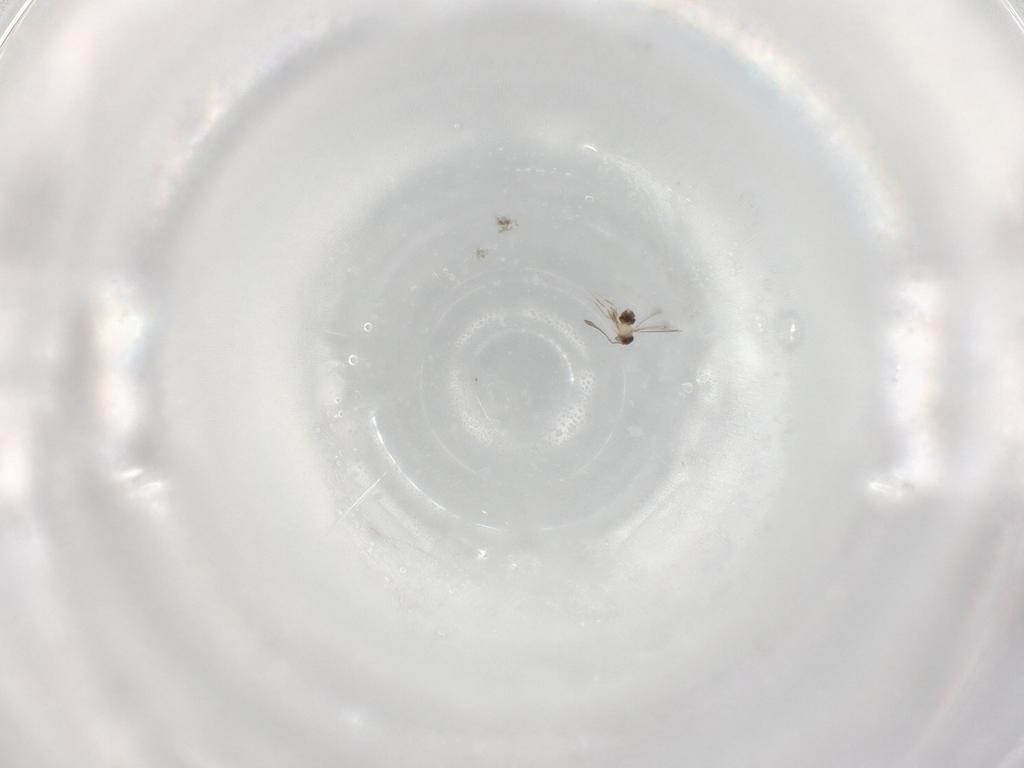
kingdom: Animalia
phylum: Arthropoda
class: Insecta
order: Hymenoptera
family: Mymaridae
